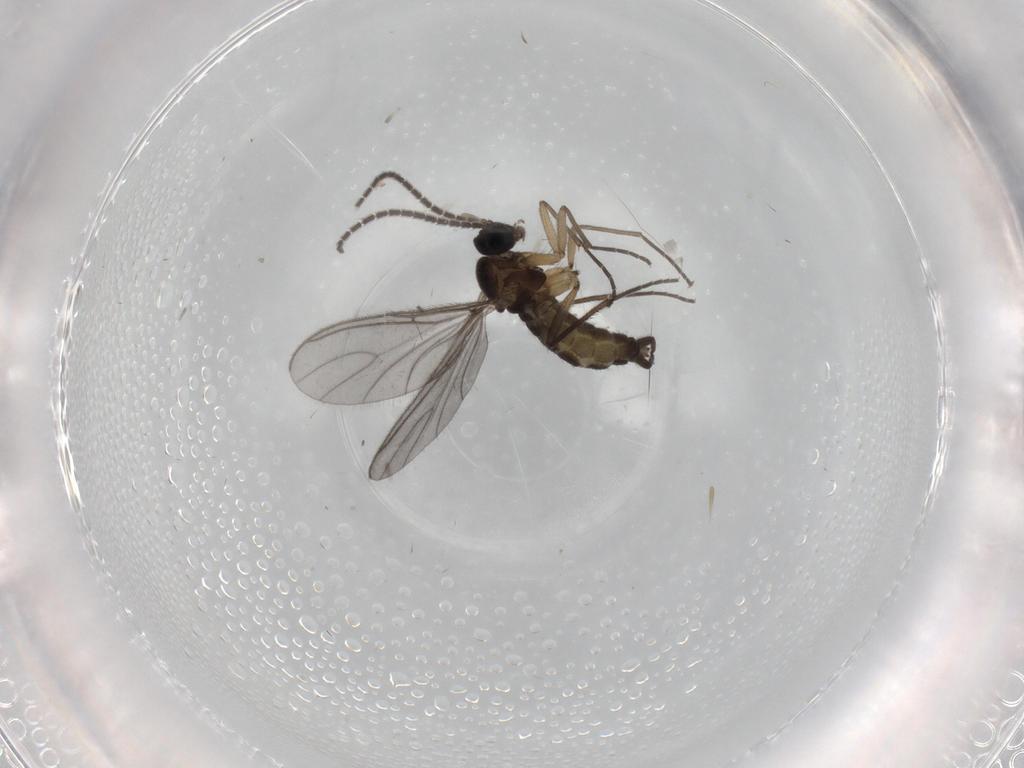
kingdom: Animalia
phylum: Arthropoda
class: Insecta
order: Diptera
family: Sciaridae
